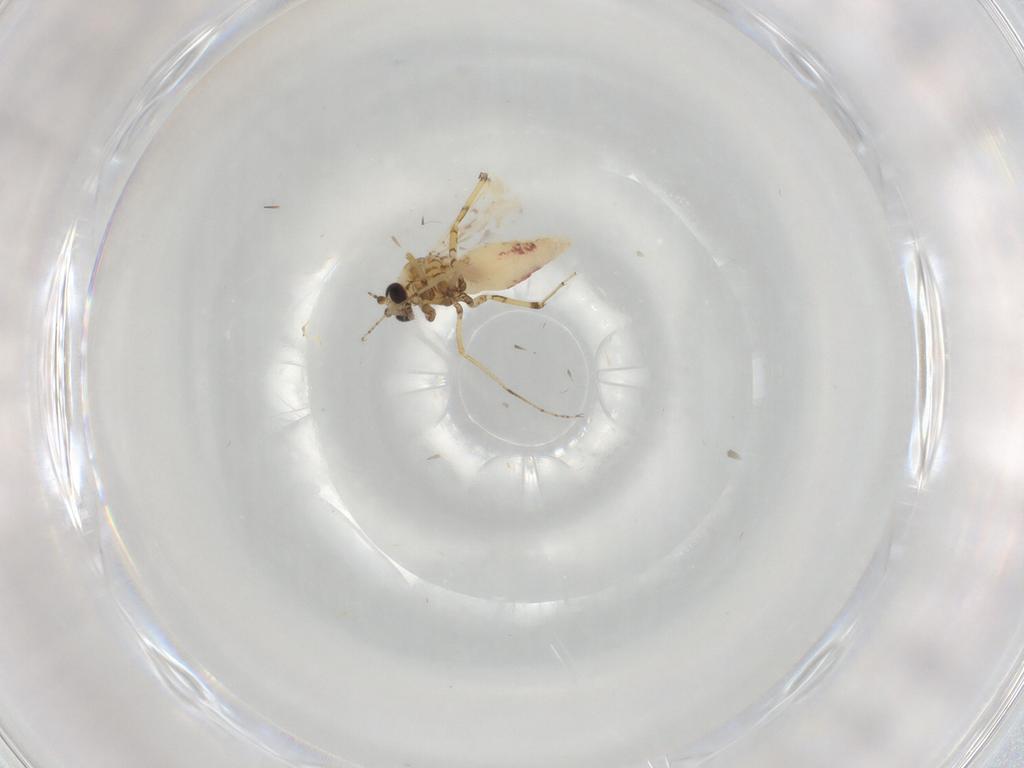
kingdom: Animalia
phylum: Arthropoda
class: Insecta
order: Diptera
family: Ceratopogonidae
